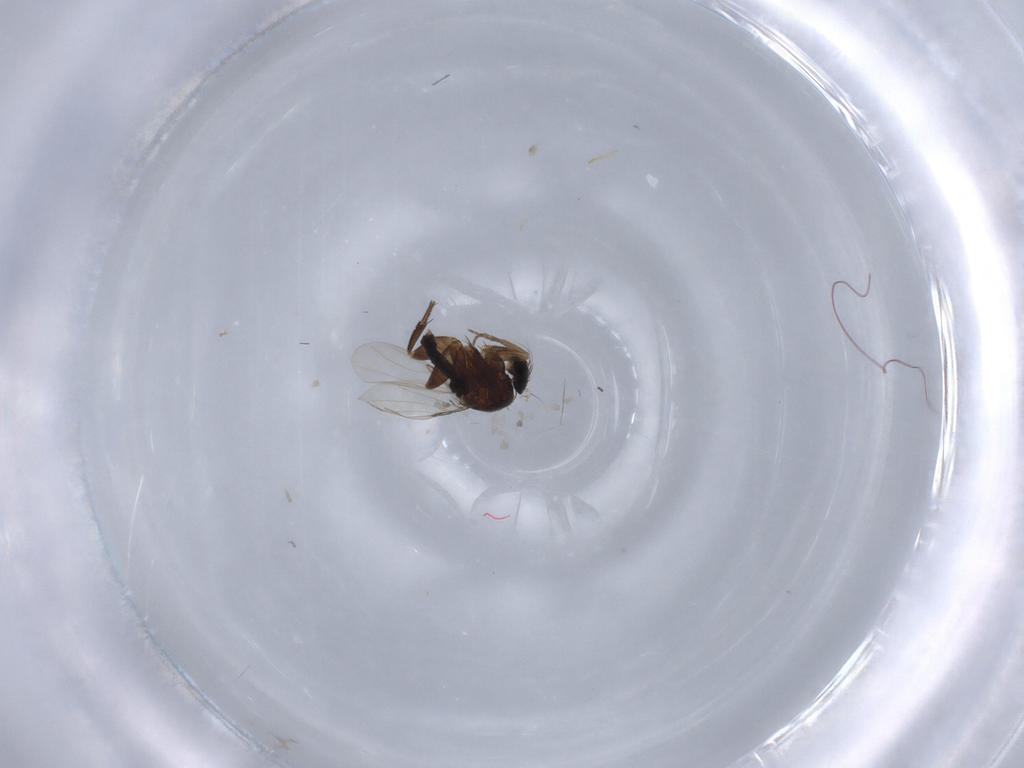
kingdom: Animalia
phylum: Arthropoda
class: Insecta
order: Diptera
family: Phoridae
